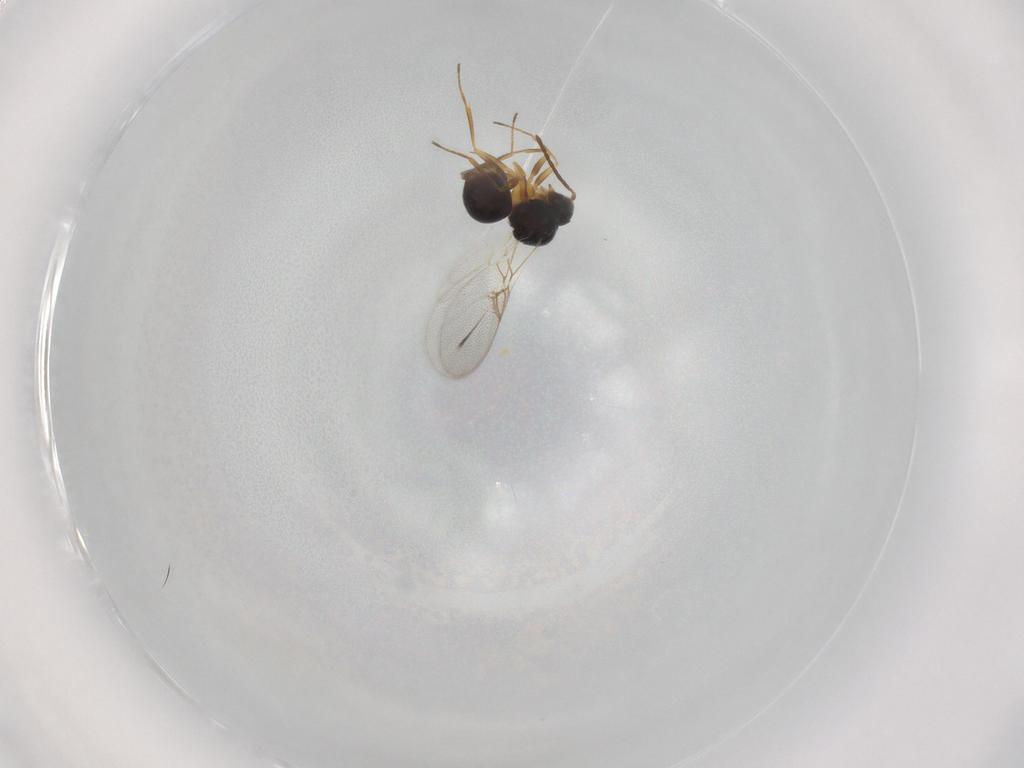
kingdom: Animalia
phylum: Arthropoda
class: Insecta
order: Hymenoptera
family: Figitidae
